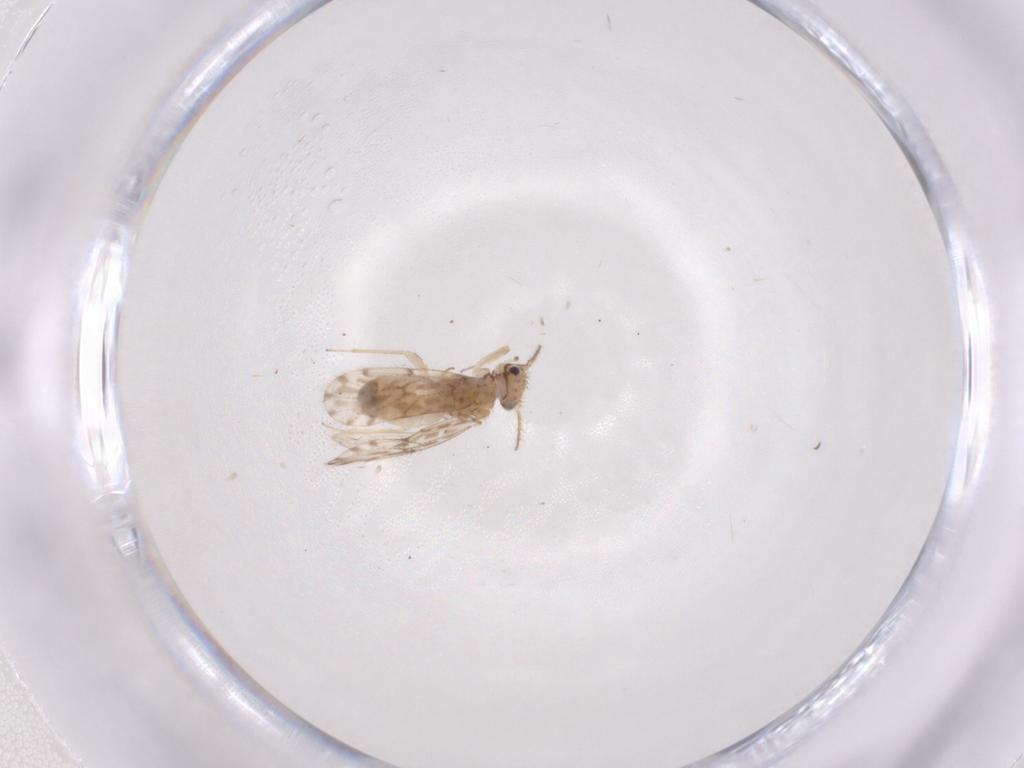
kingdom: Animalia
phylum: Arthropoda
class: Insecta
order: Psocodea
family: Ectopsocidae
